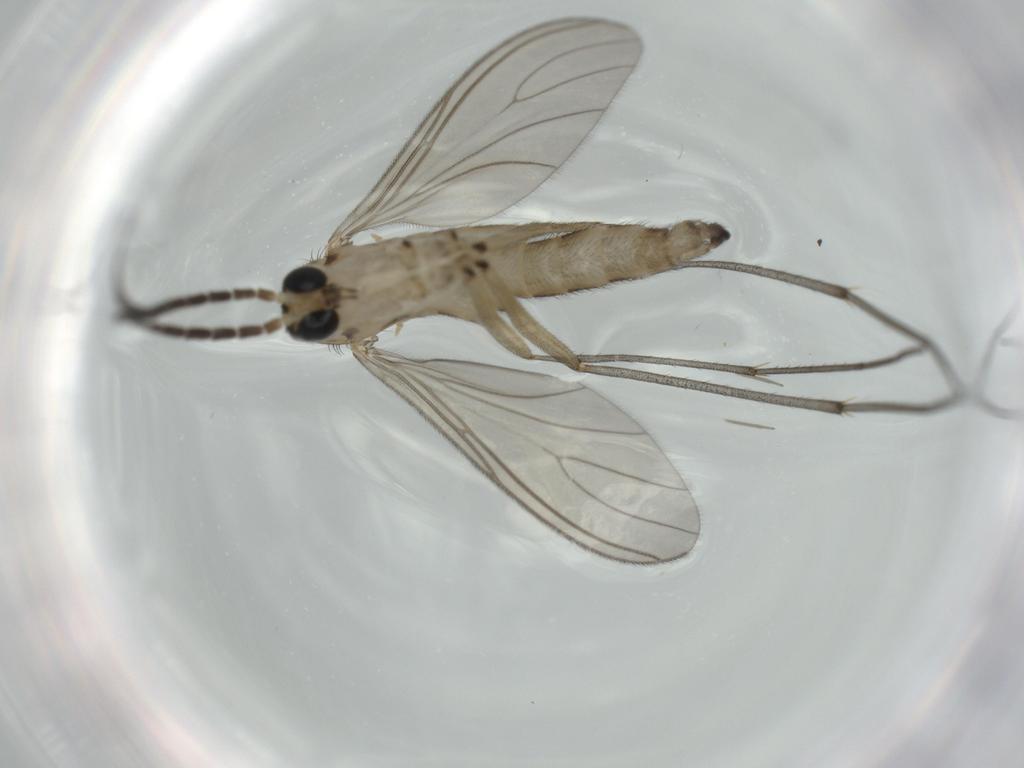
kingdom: Animalia
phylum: Arthropoda
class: Insecta
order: Diptera
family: Sciaridae
